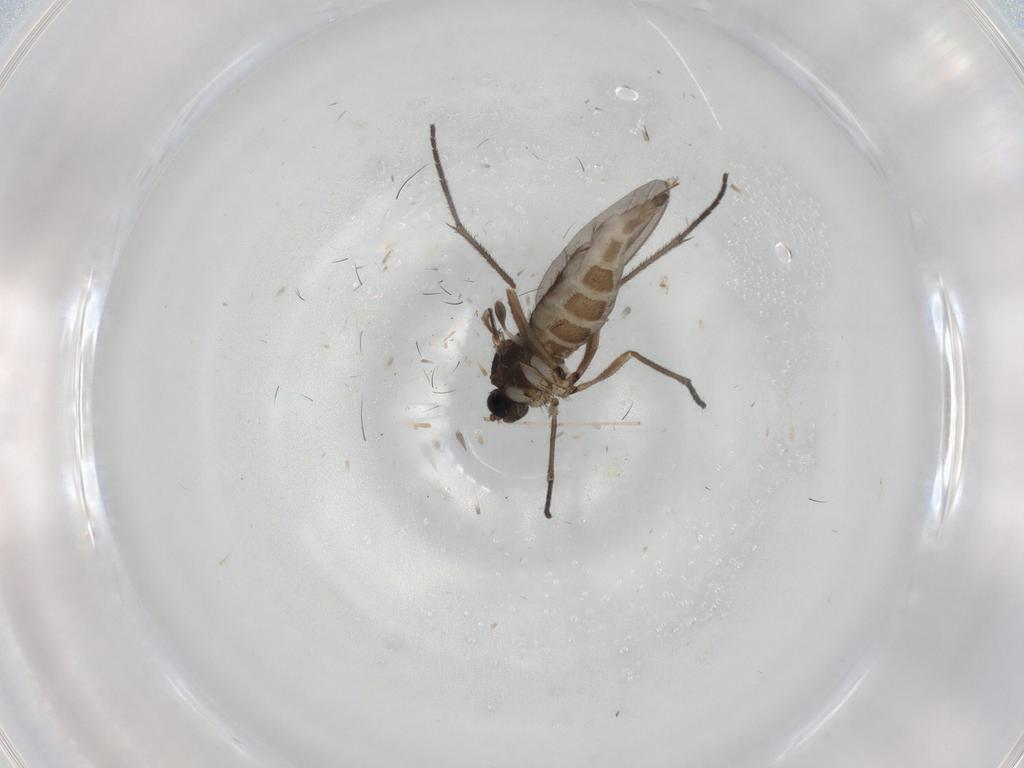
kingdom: Animalia
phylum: Arthropoda
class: Insecta
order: Diptera
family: Sciaridae
